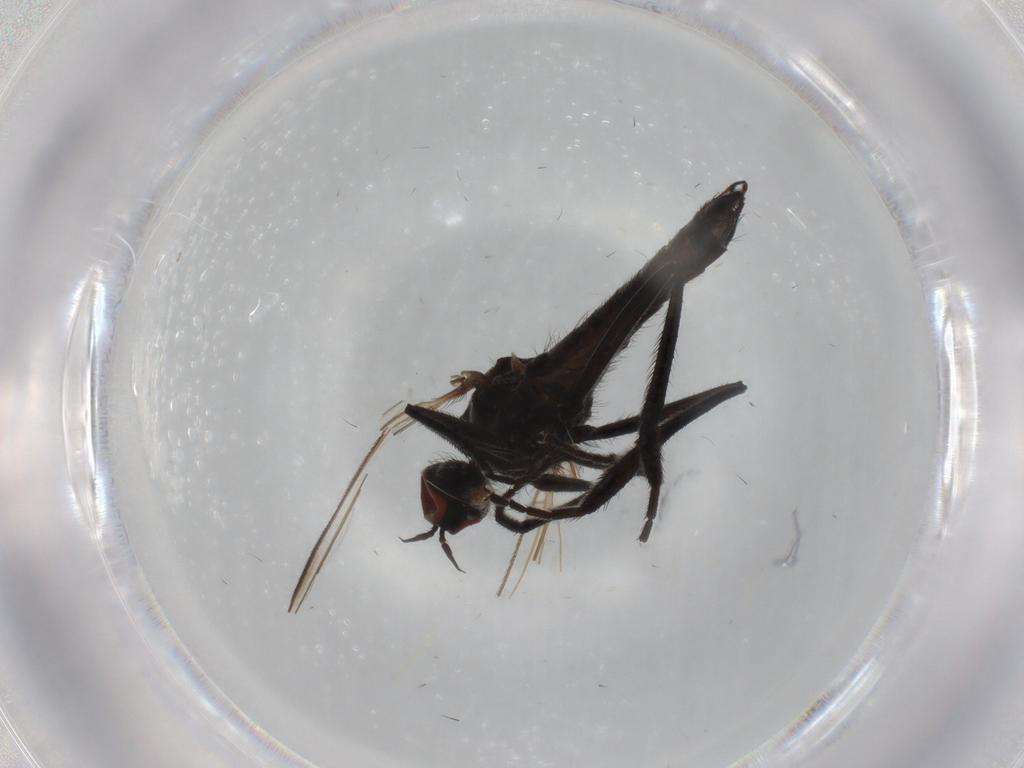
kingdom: Animalia
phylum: Arthropoda
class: Insecta
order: Diptera
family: Empididae
